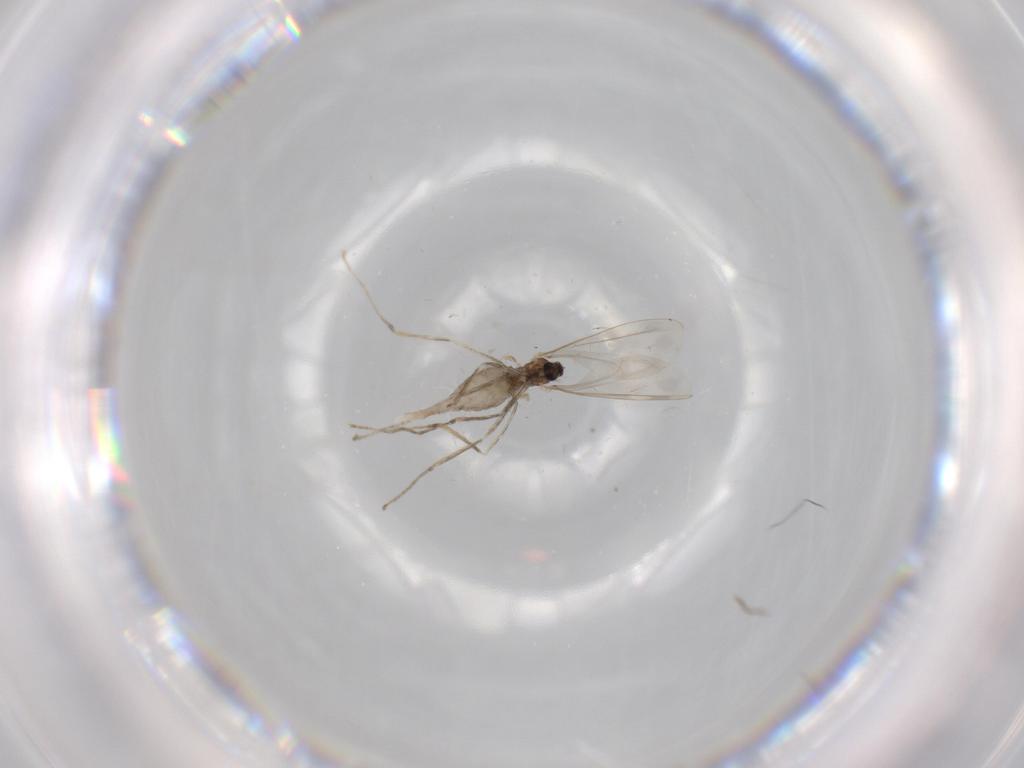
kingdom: Animalia
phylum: Arthropoda
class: Insecta
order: Diptera
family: Cecidomyiidae
